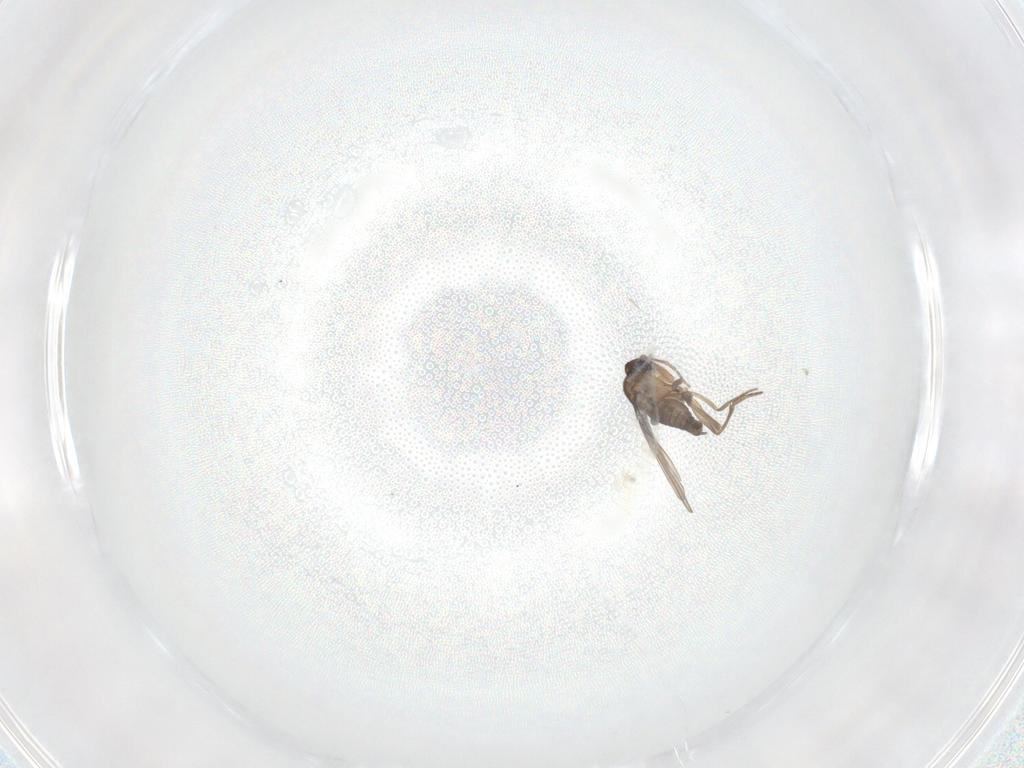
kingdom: Animalia
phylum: Arthropoda
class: Insecta
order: Diptera
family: Phoridae
